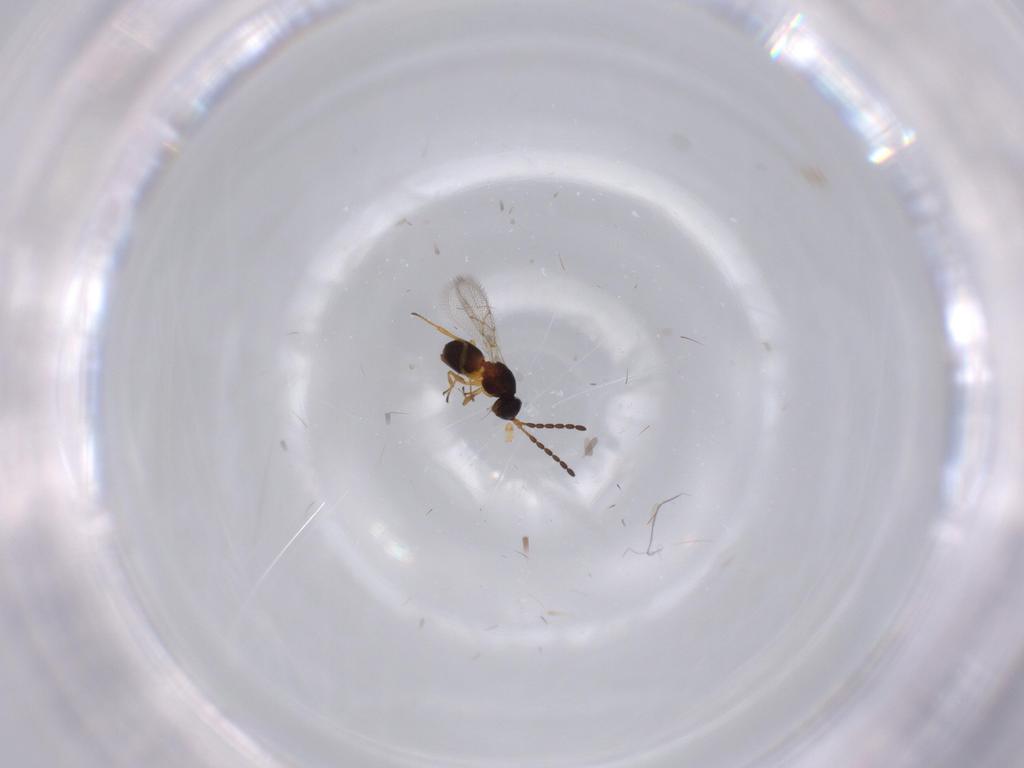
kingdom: Animalia
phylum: Arthropoda
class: Insecta
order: Hymenoptera
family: Figitidae
